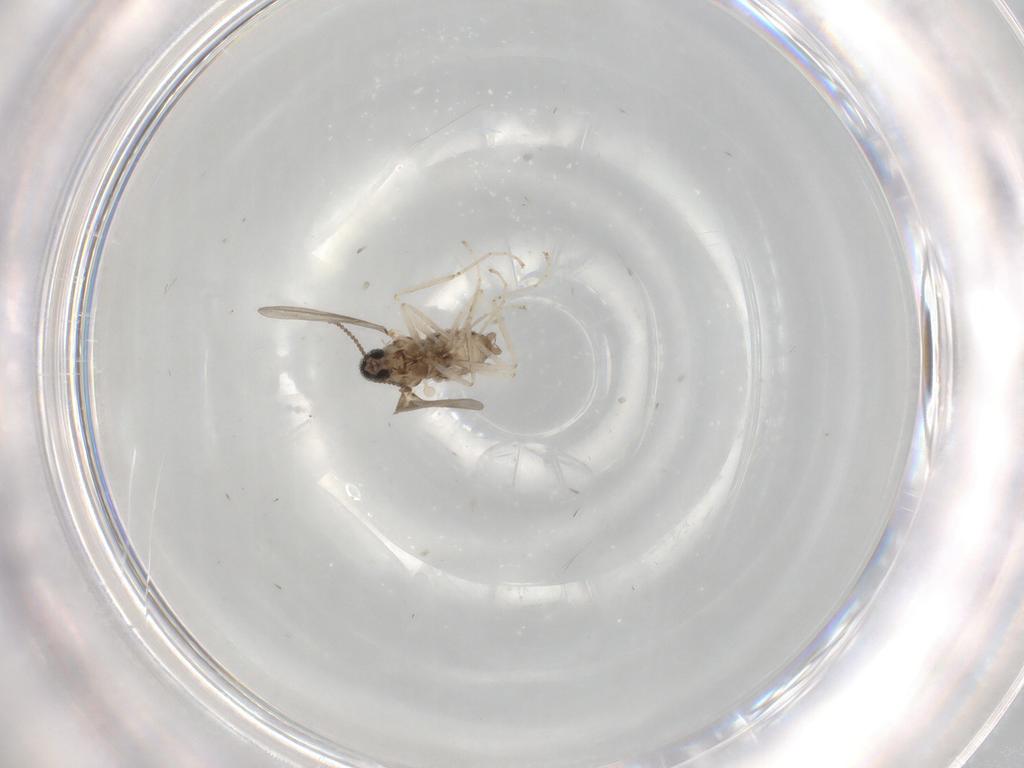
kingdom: Animalia
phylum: Arthropoda
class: Insecta
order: Diptera
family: Cecidomyiidae
